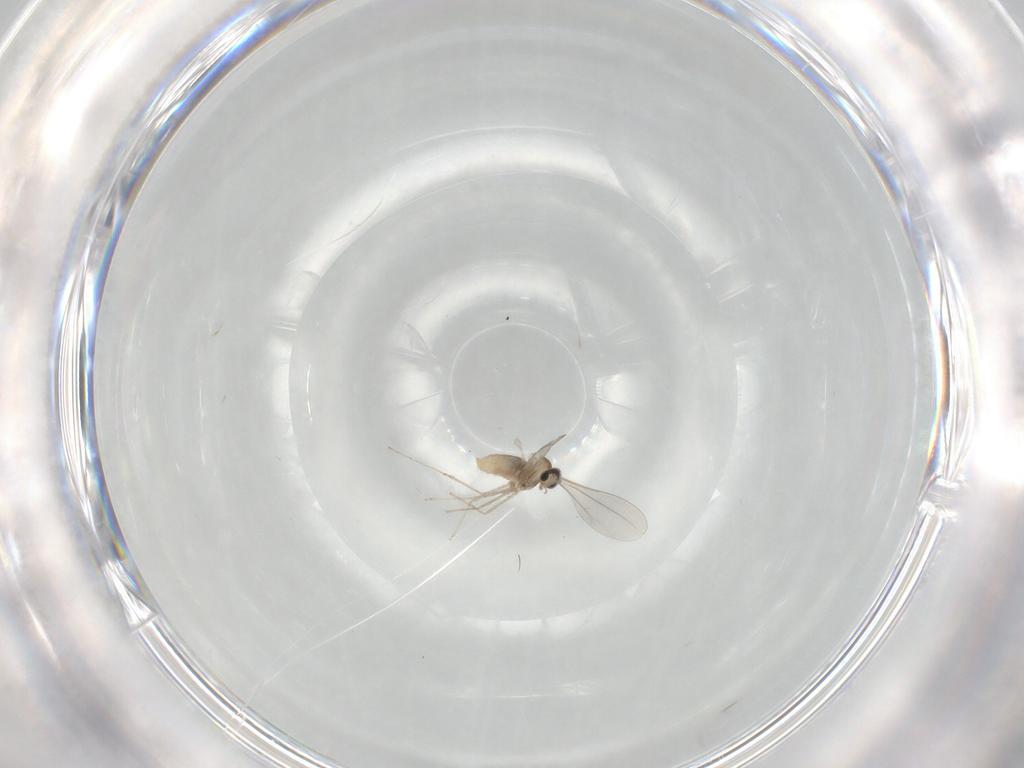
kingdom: Animalia
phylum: Arthropoda
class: Insecta
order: Diptera
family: Cecidomyiidae
